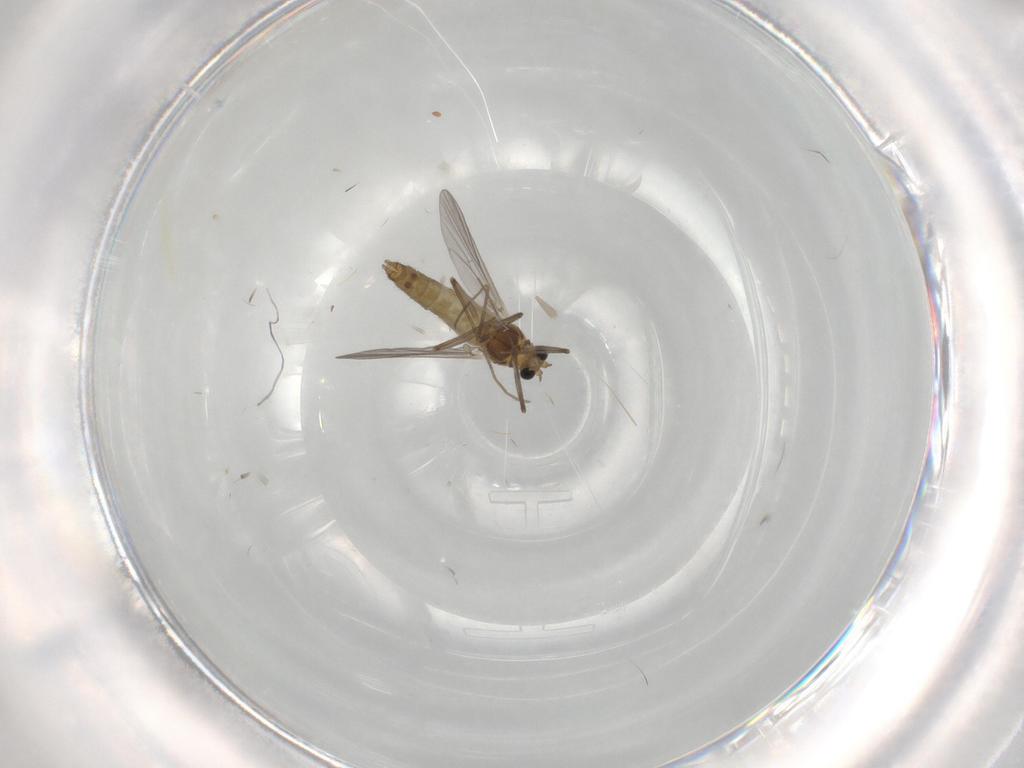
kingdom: Animalia
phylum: Arthropoda
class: Insecta
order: Diptera
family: Chironomidae
